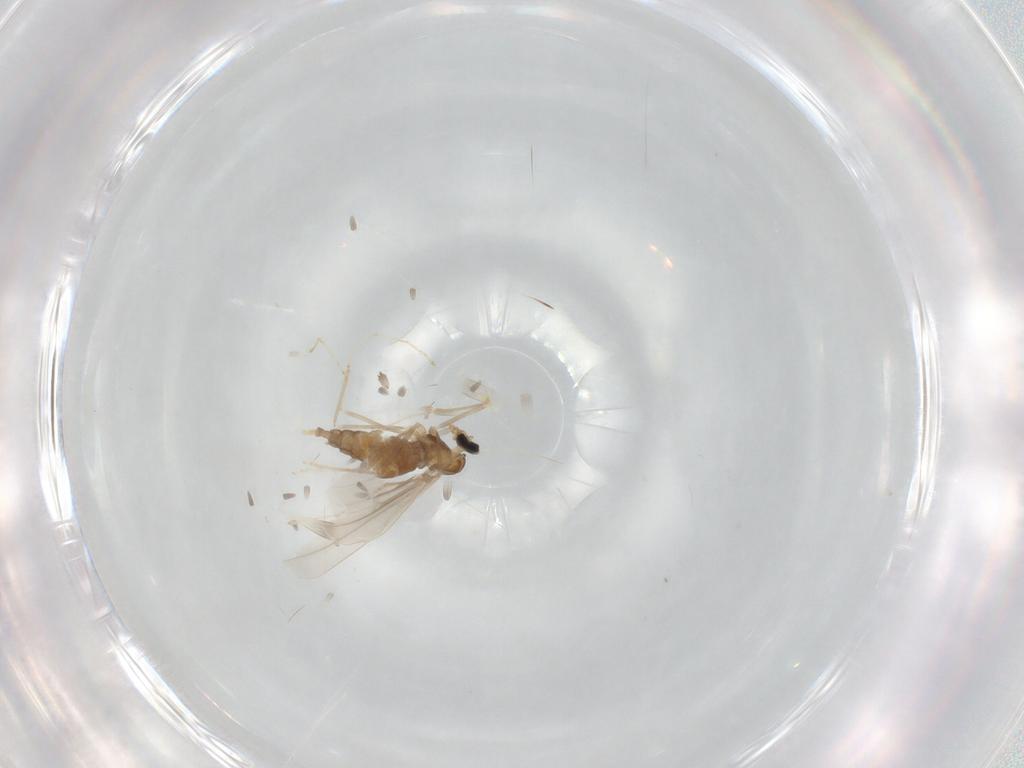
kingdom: Animalia
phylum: Arthropoda
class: Insecta
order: Diptera
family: Cecidomyiidae
